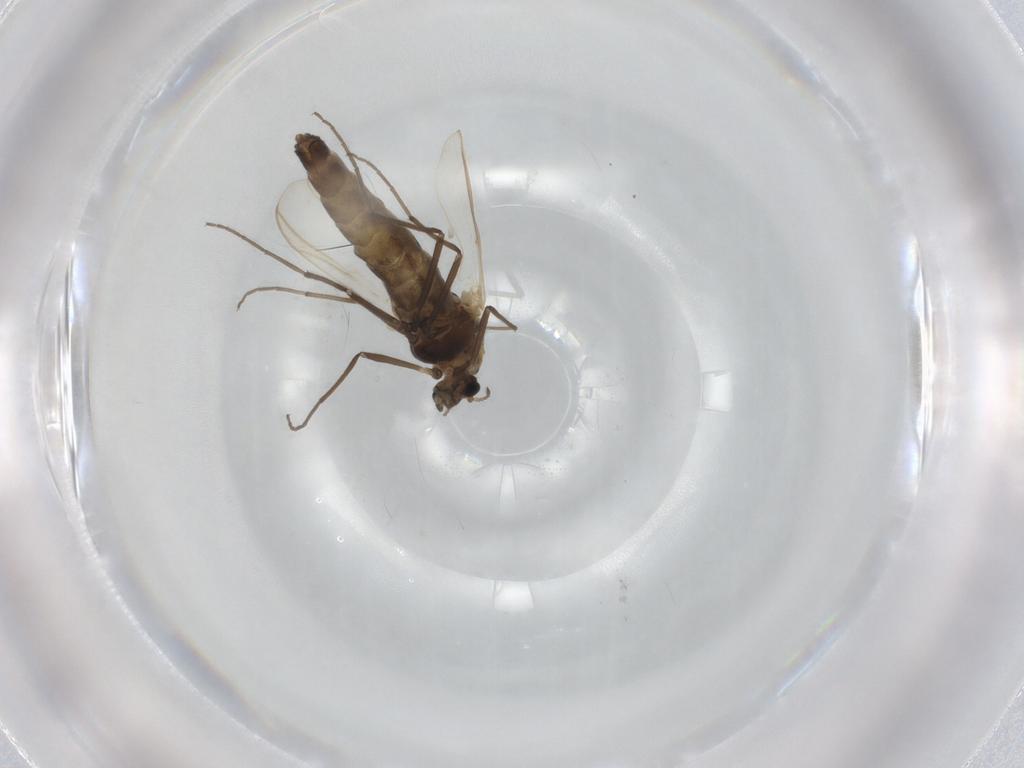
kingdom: Animalia
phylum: Arthropoda
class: Insecta
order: Diptera
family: Chironomidae
